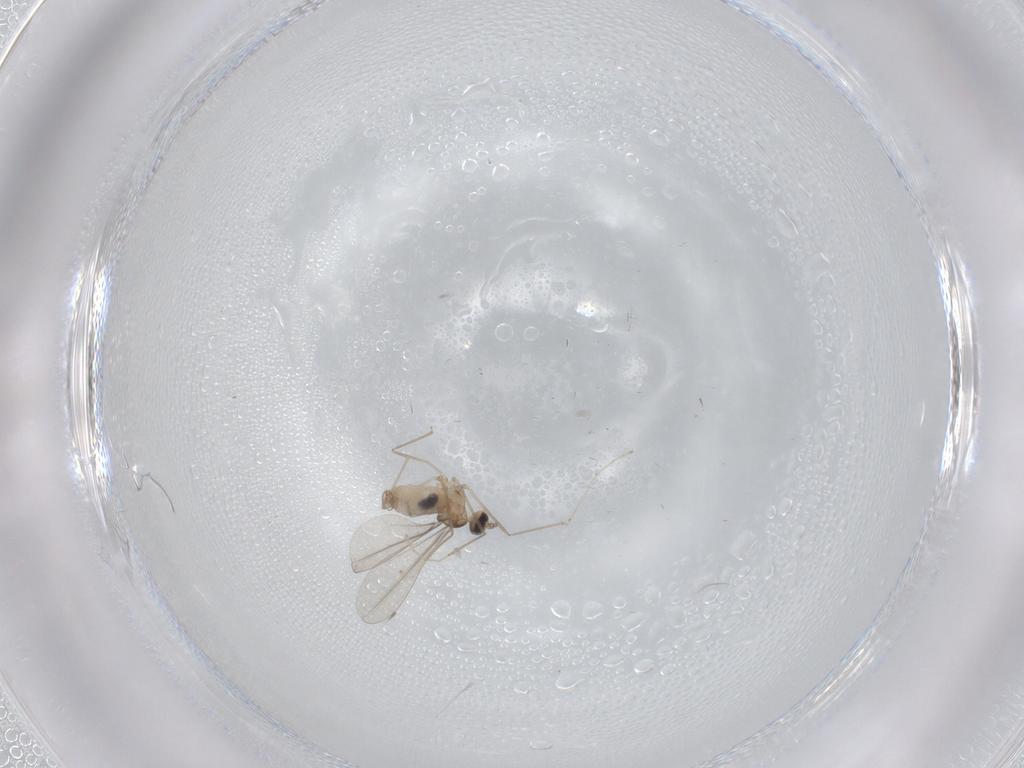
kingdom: Animalia
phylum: Arthropoda
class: Insecta
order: Diptera
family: Cecidomyiidae
